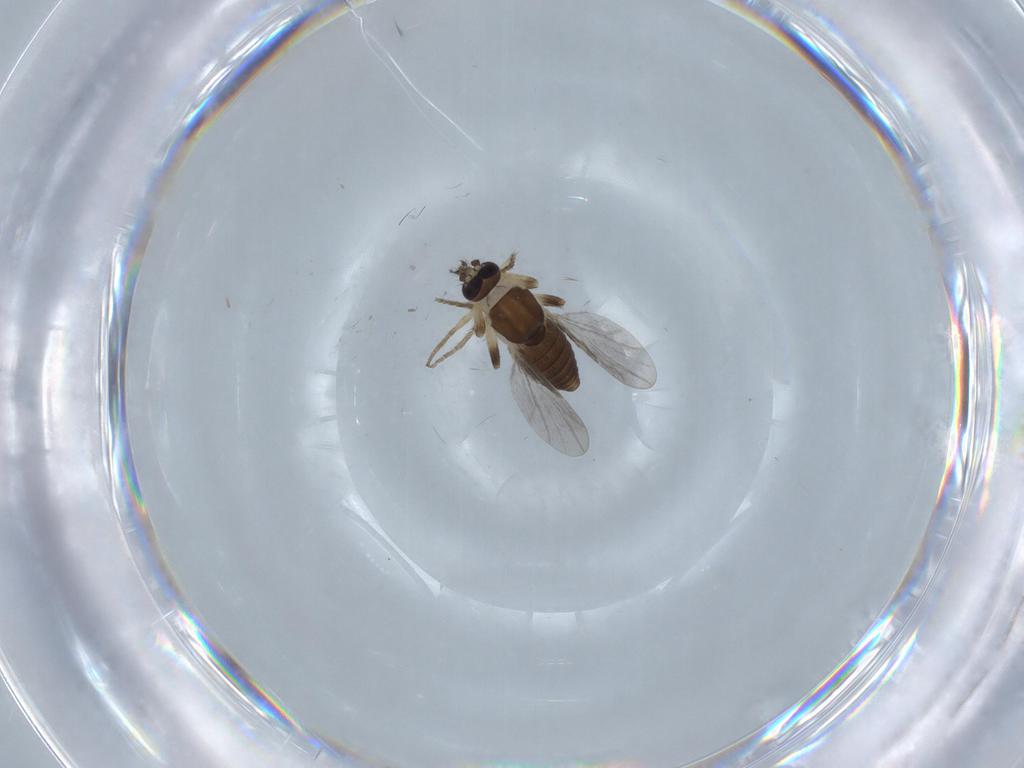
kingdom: Animalia
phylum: Arthropoda
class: Insecta
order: Diptera
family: Ceratopogonidae
